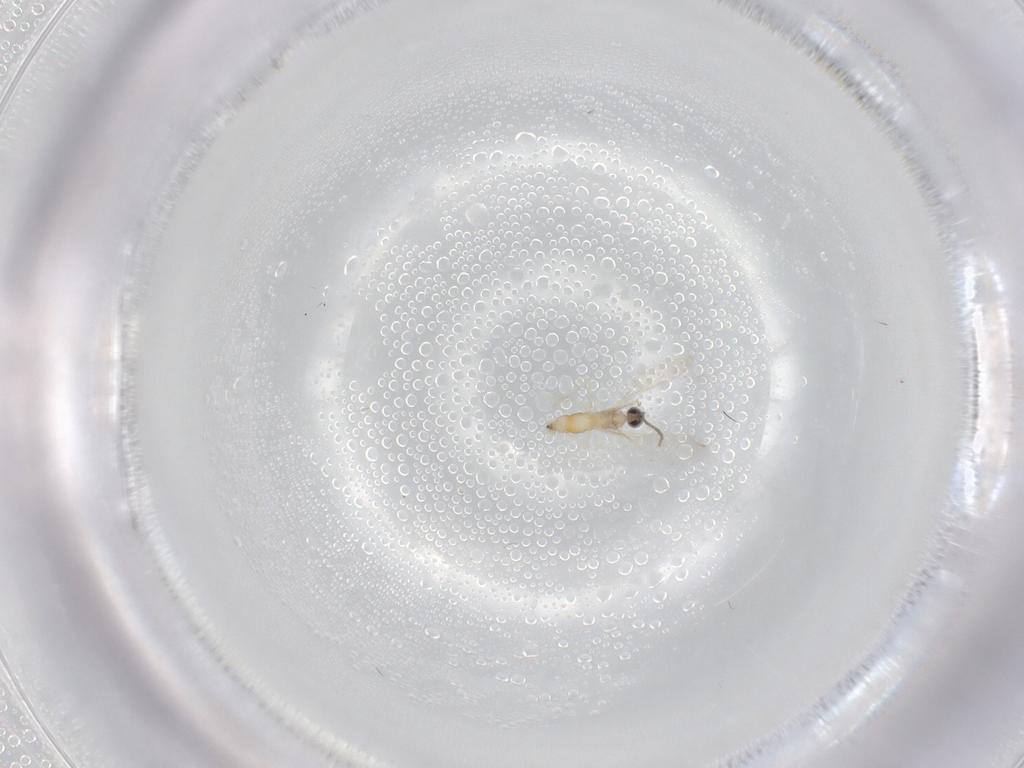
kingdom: Animalia
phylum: Arthropoda
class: Insecta
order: Diptera
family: Cecidomyiidae
